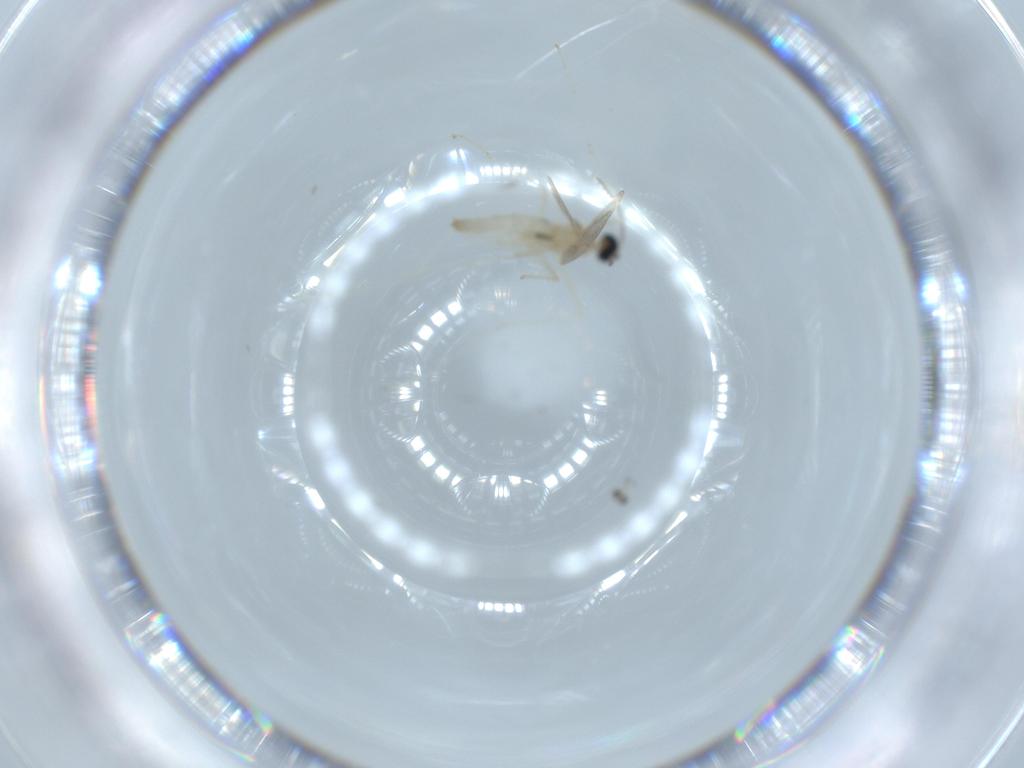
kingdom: Animalia
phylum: Arthropoda
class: Insecta
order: Diptera
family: Cecidomyiidae
